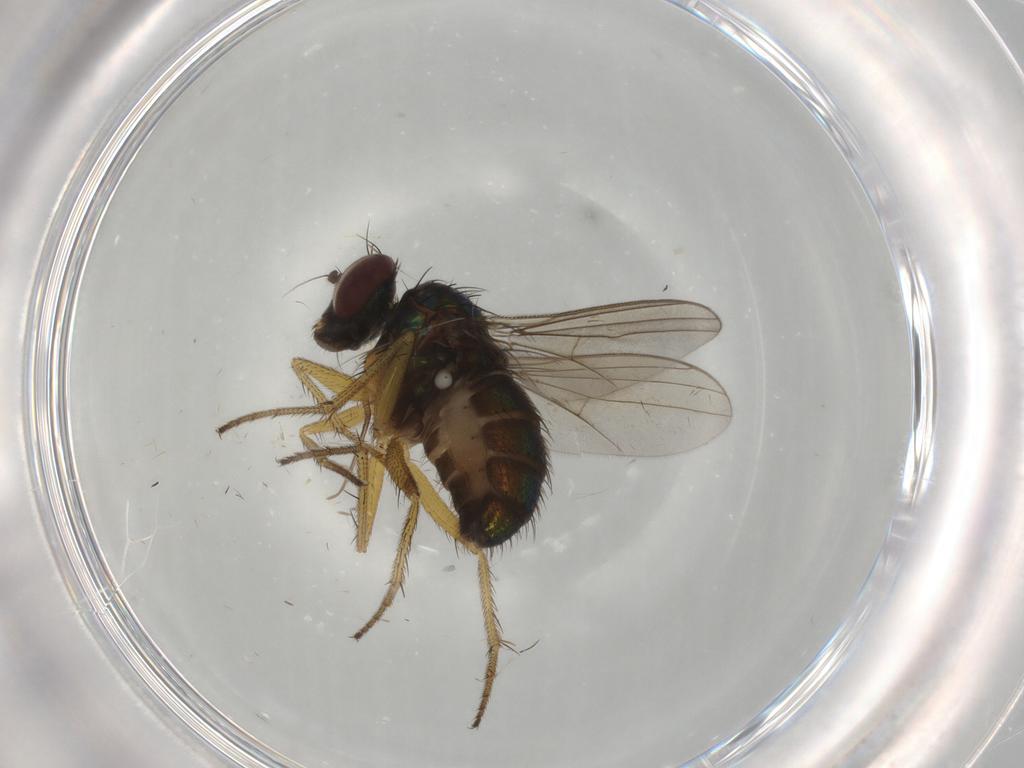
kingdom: Animalia
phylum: Arthropoda
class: Insecta
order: Diptera
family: Dolichopodidae
